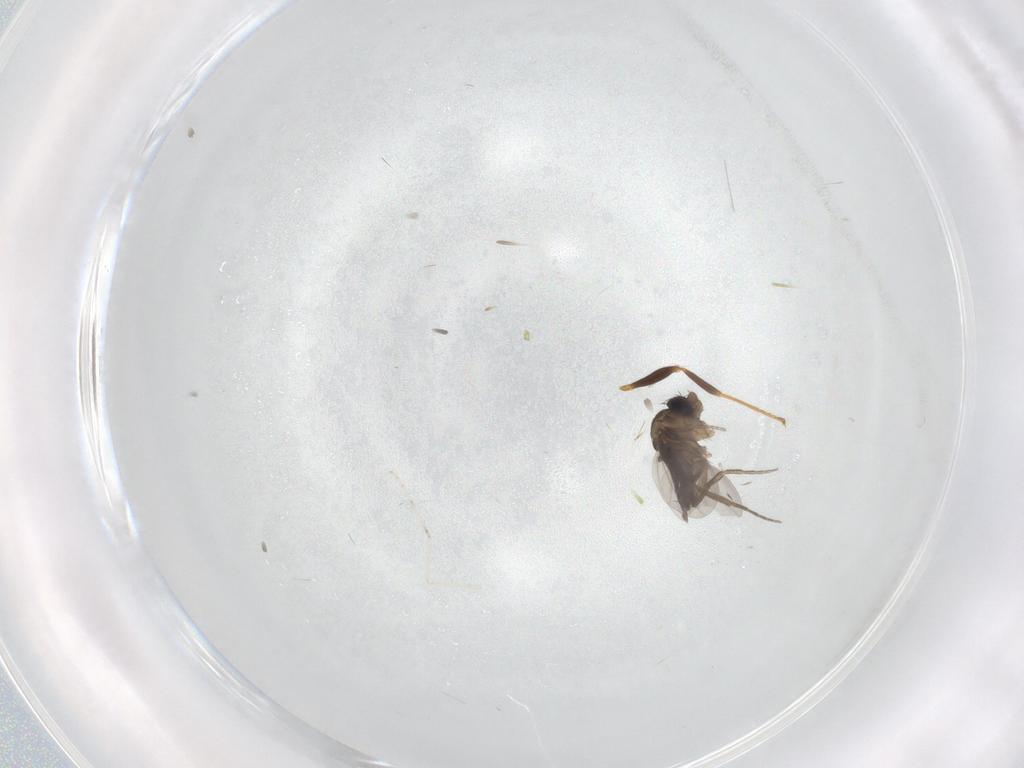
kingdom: Animalia
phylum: Arthropoda
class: Insecta
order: Diptera
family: Phoridae
